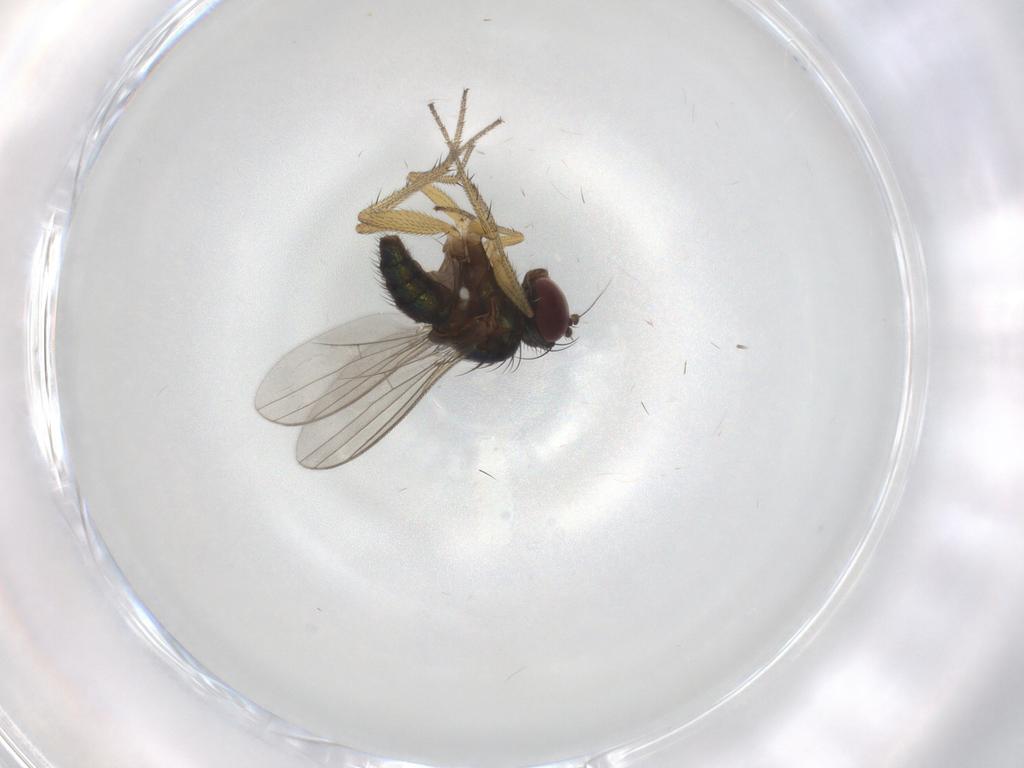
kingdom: Animalia
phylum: Arthropoda
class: Insecta
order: Diptera
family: Dolichopodidae
